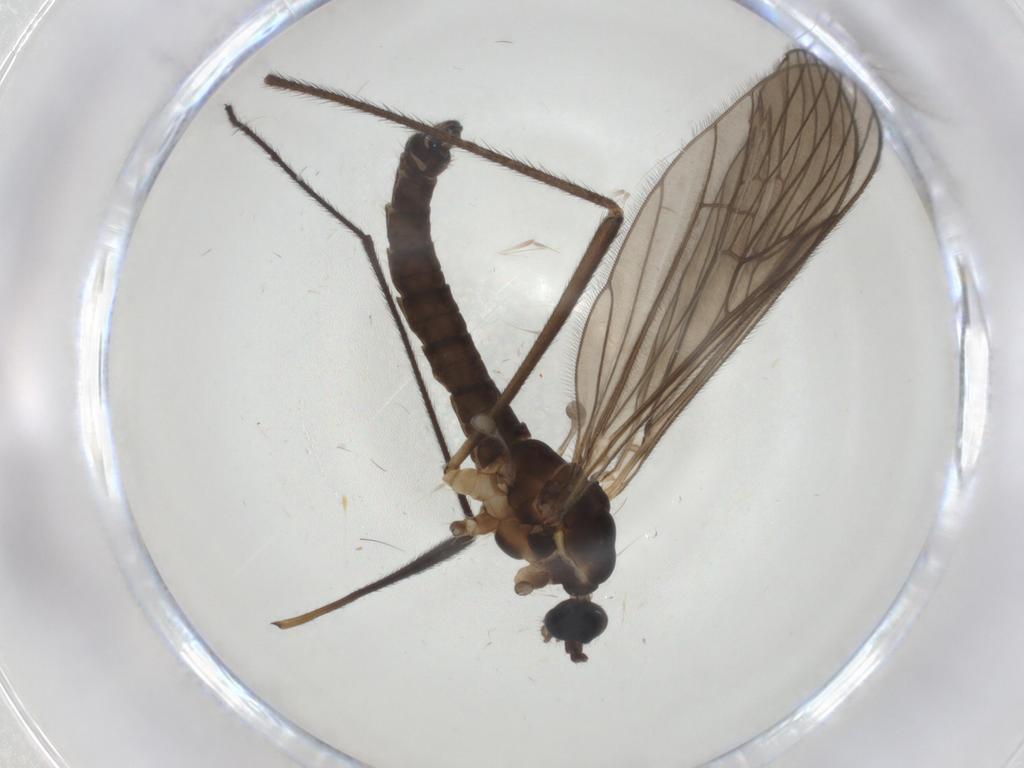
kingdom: Animalia
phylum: Arthropoda
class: Insecta
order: Diptera
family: Limoniidae
